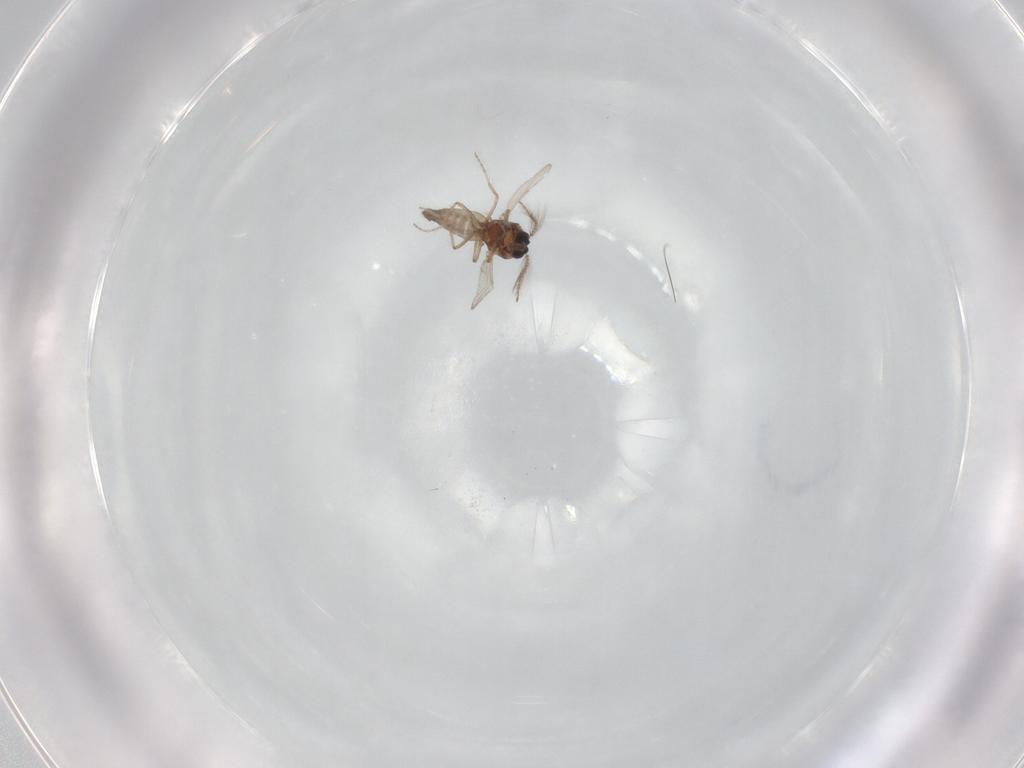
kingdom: Animalia
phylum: Arthropoda
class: Insecta
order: Diptera
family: Ceratopogonidae
